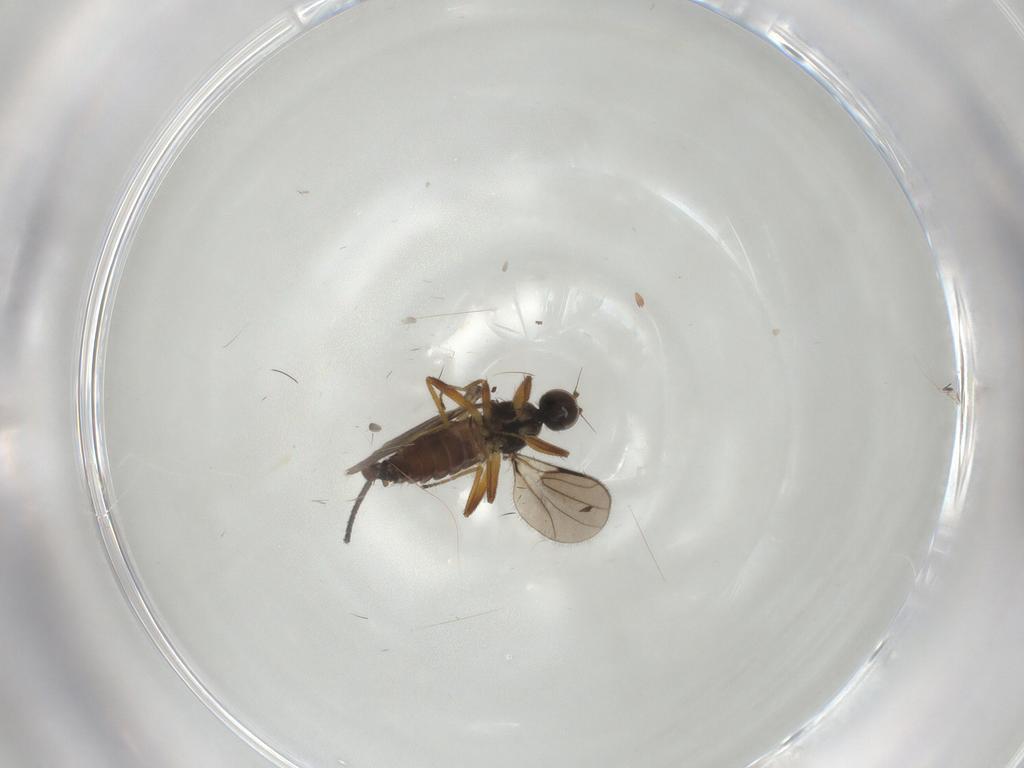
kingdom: Animalia
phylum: Arthropoda
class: Insecta
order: Diptera
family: Hybotidae
